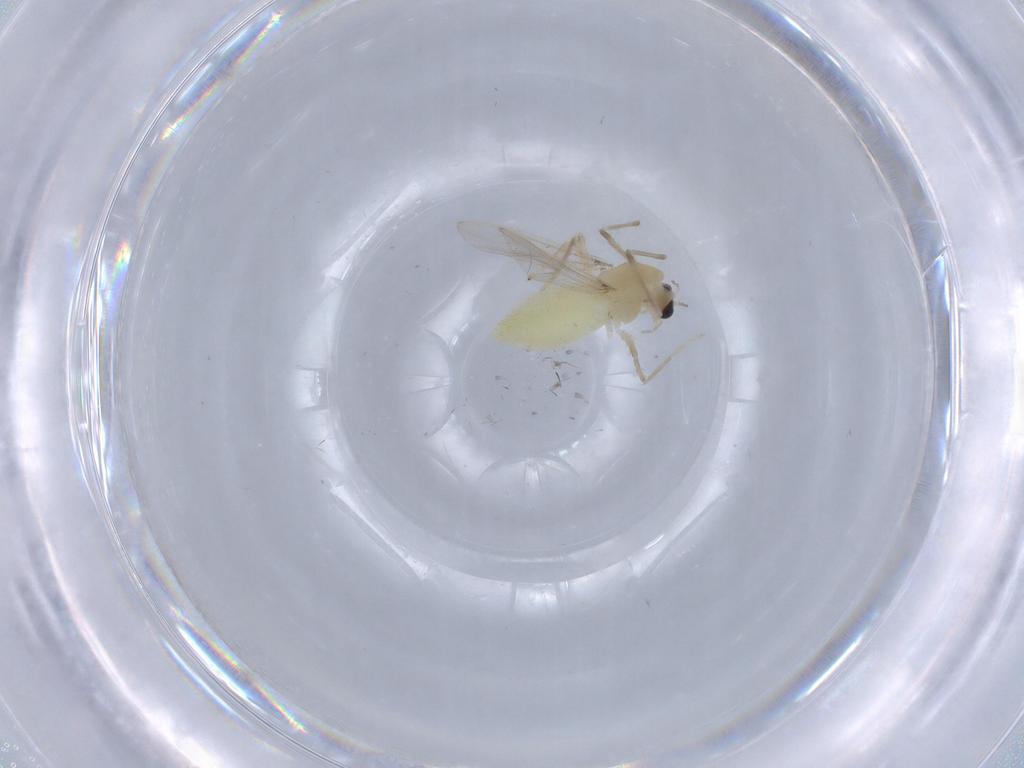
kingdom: Animalia
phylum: Arthropoda
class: Insecta
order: Diptera
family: Chironomidae
